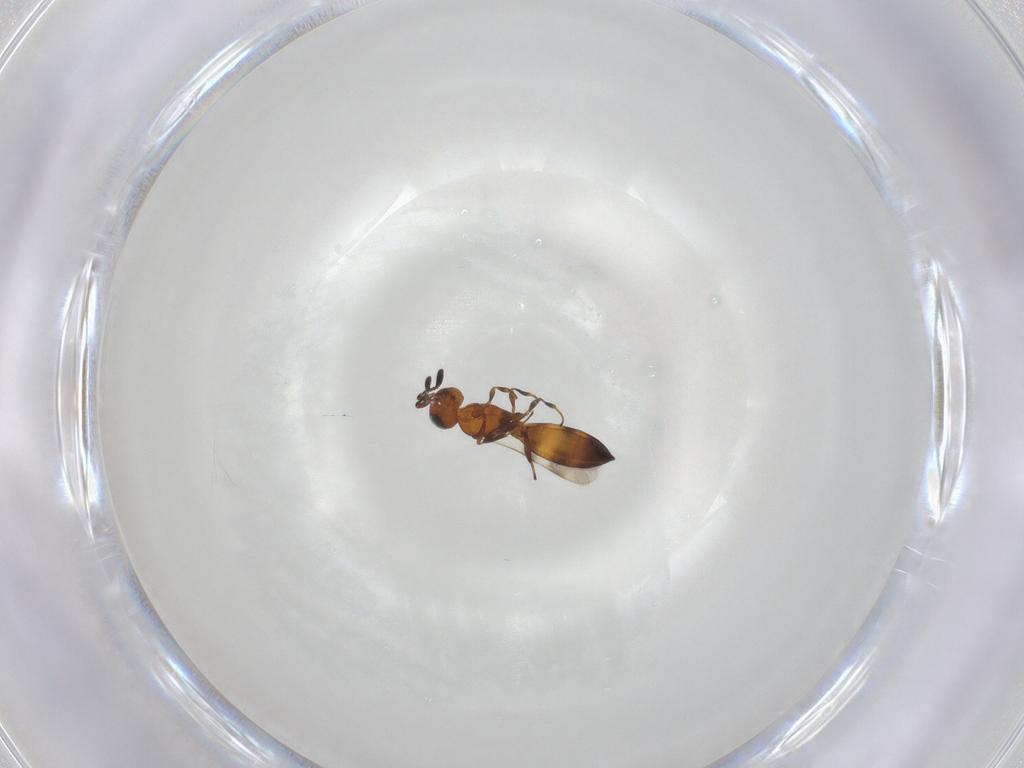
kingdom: Animalia
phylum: Arthropoda
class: Insecta
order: Hymenoptera
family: Scelionidae
